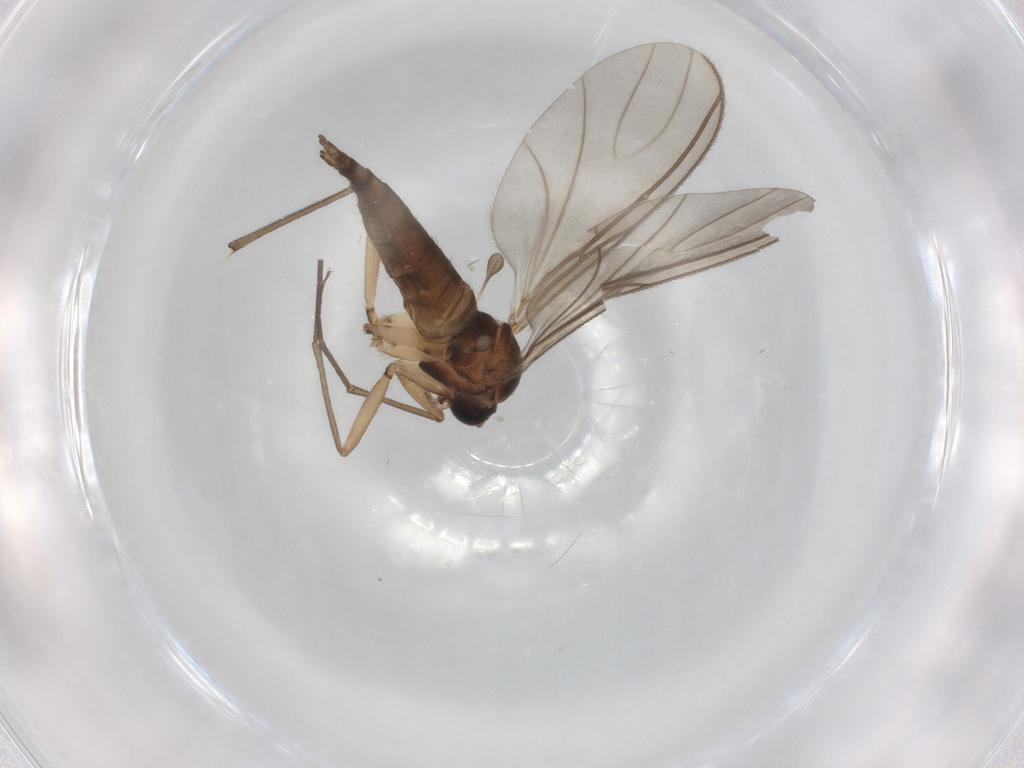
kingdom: Animalia
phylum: Arthropoda
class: Insecta
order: Diptera
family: Sciaridae
